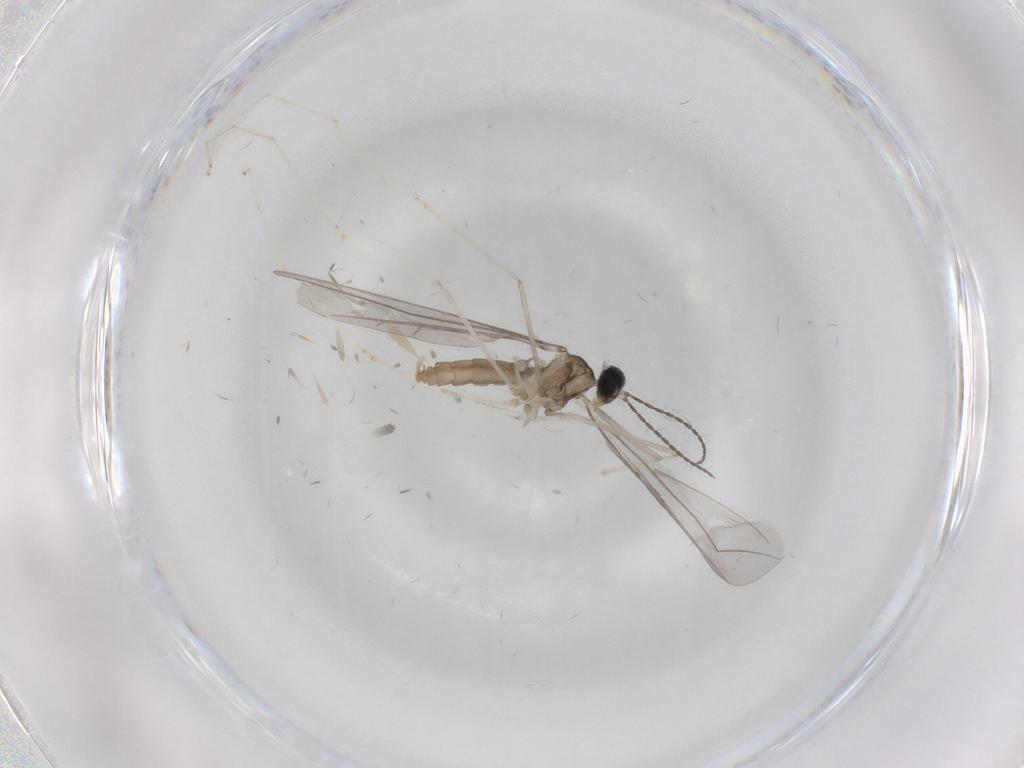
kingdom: Animalia
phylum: Arthropoda
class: Insecta
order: Diptera
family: Cecidomyiidae
